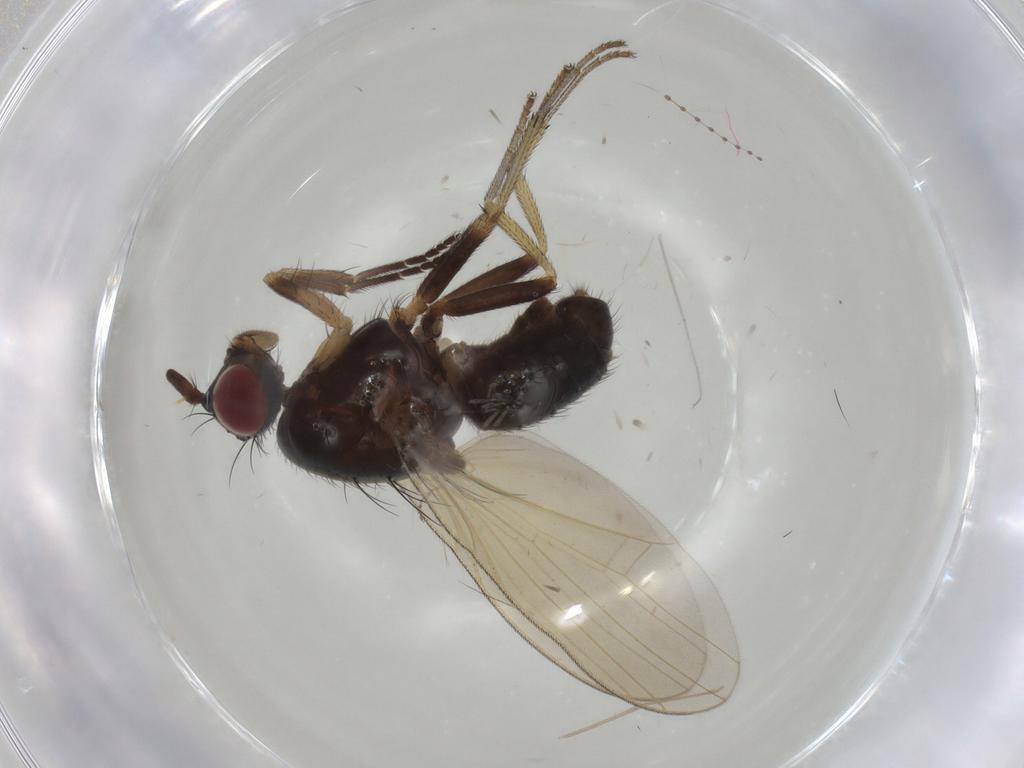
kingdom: Animalia
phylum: Arthropoda
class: Insecta
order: Diptera
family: Lauxaniidae
